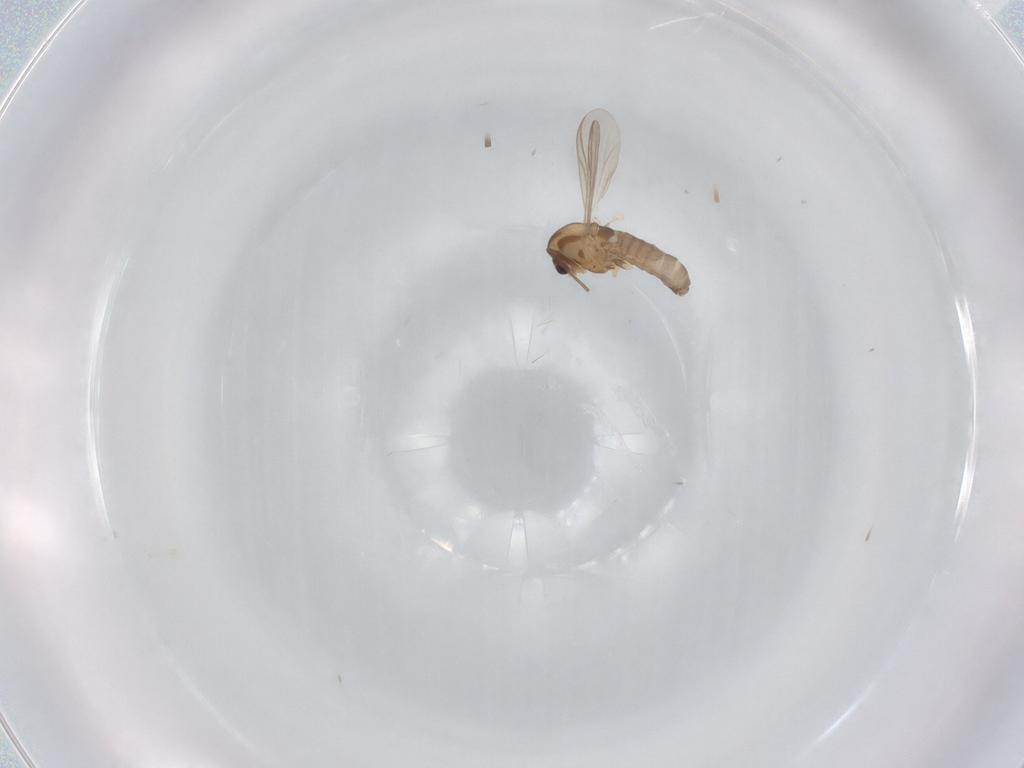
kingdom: Animalia
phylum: Arthropoda
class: Insecta
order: Diptera
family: Chironomidae
